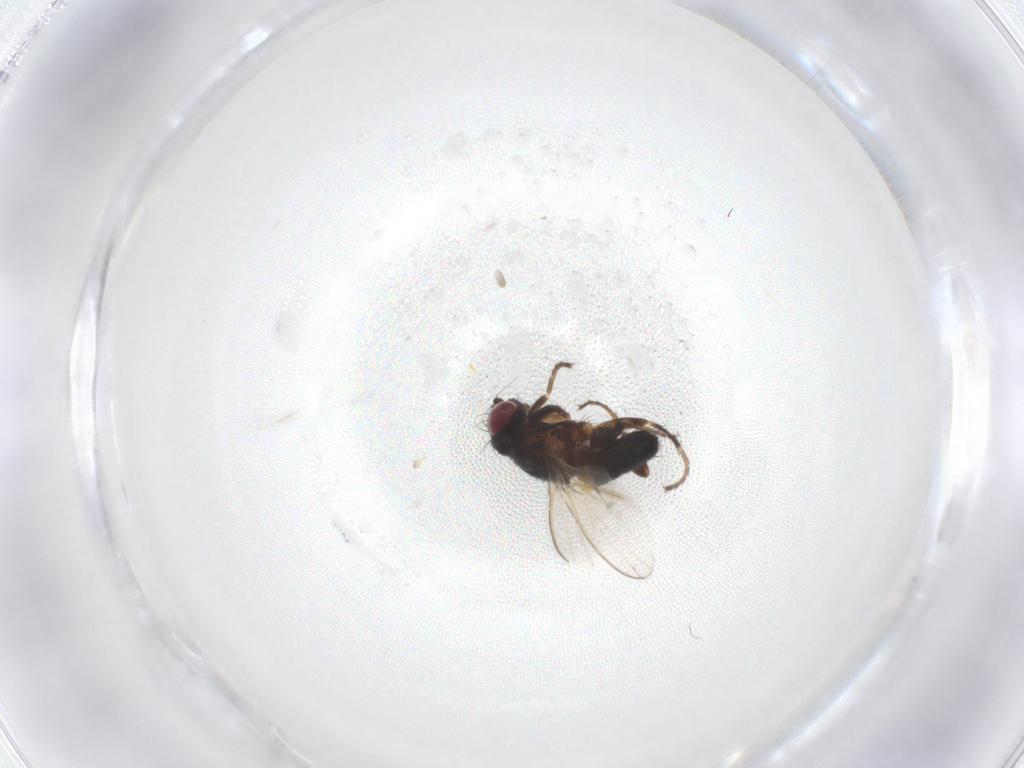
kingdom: Animalia
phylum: Arthropoda
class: Insecta
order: Diptera
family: Milichiidae
